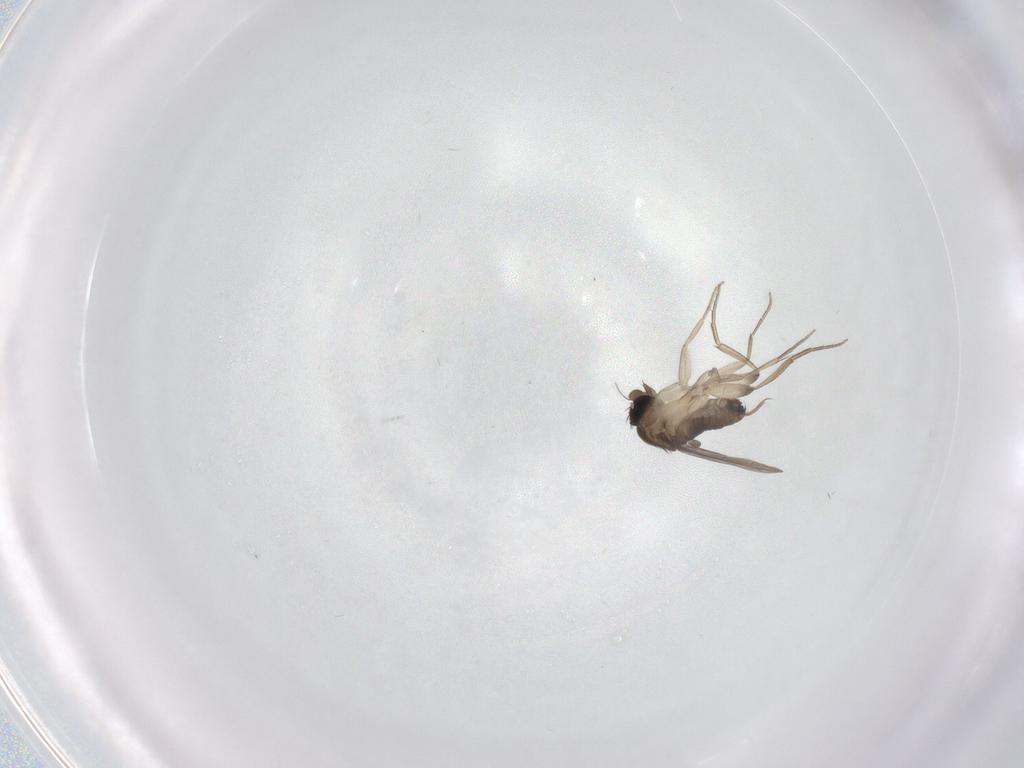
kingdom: Animalia
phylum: Arthropoda
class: Insecta
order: Diptera
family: Phoridae
